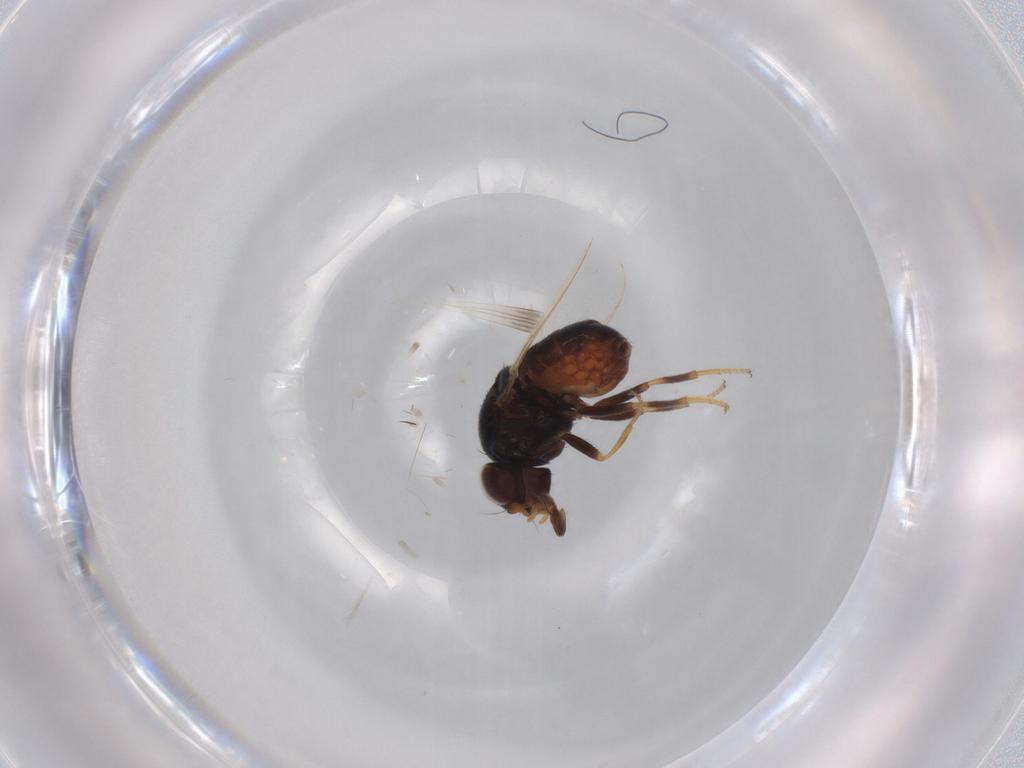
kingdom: Animalia
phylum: Arthropoda
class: Insecta
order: Diptera
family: Chloropidae
